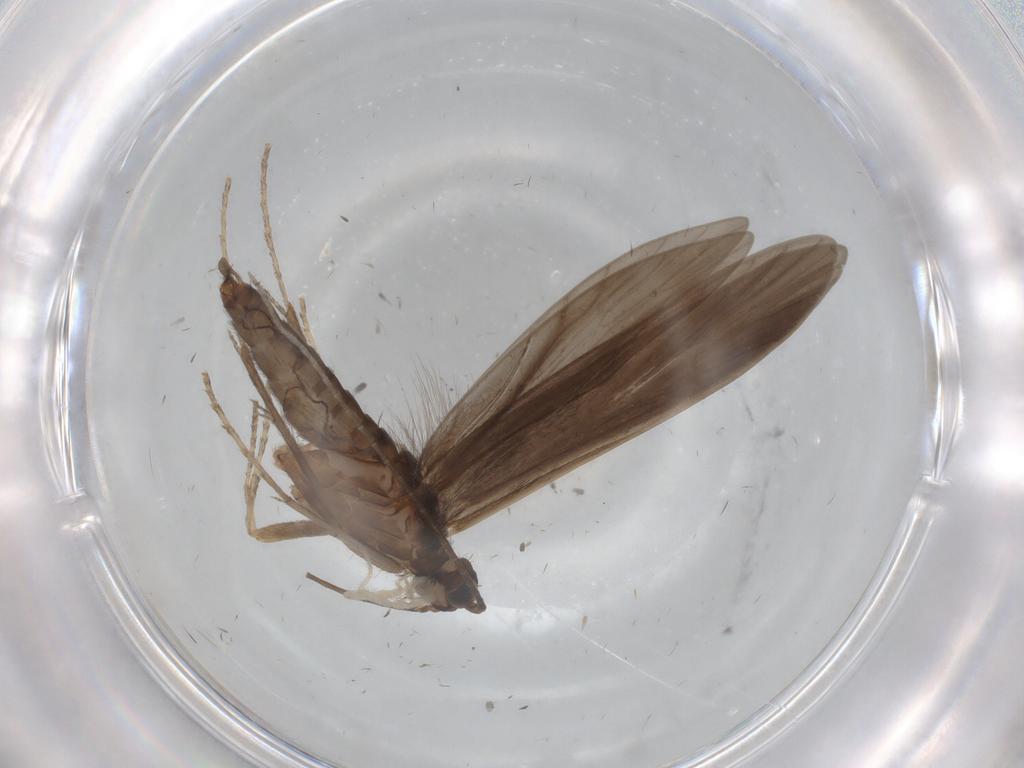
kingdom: Animalia
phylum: Arthropoda
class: Insecta
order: Trichoptera
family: Xiphocentronidae
